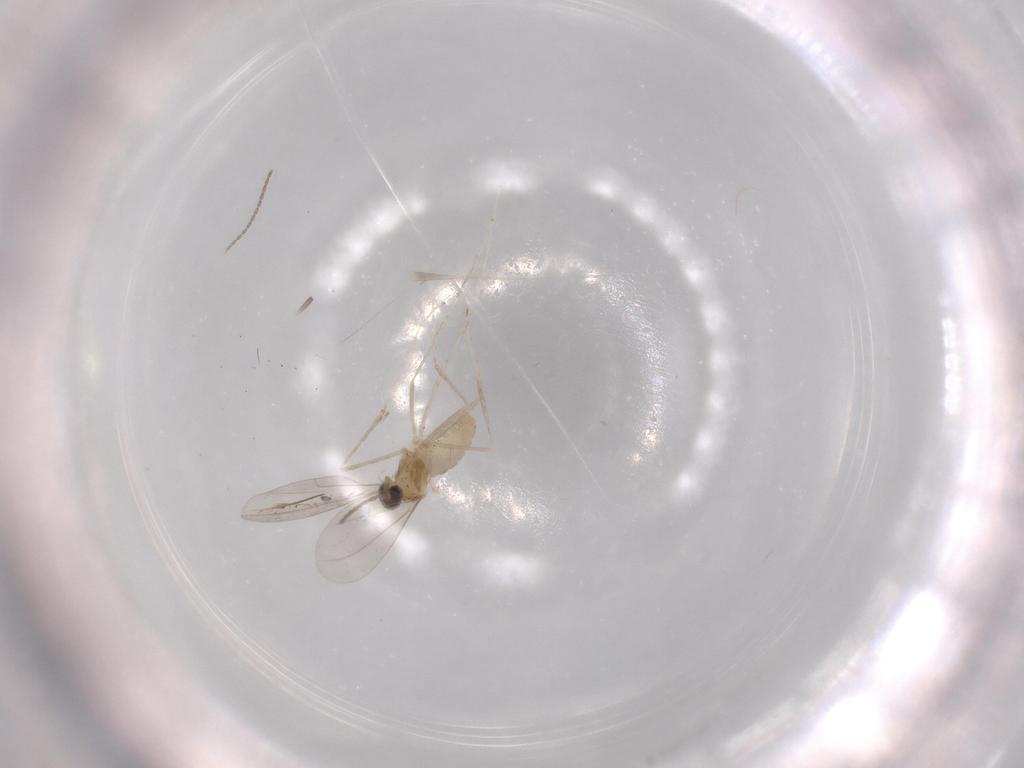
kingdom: Animalia
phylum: Arthropoda
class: Insecta
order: Diptera
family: Cecidomyiidae
